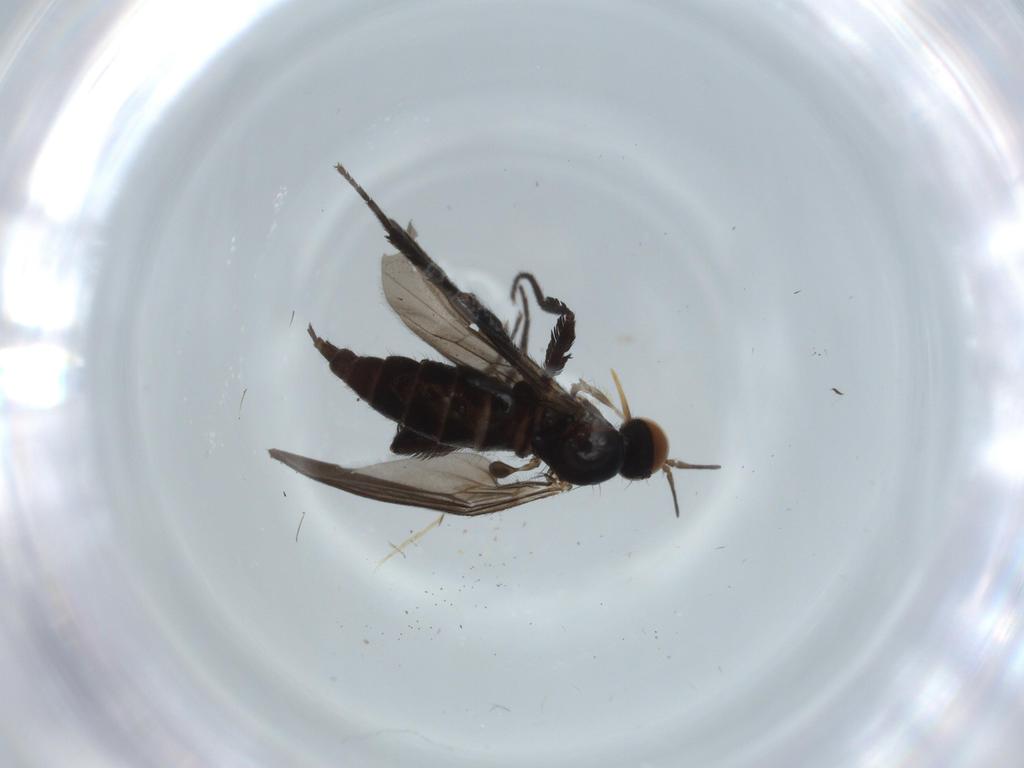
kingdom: Animalia
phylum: Arthropoda
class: Insecta
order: Diptera
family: Empididae
